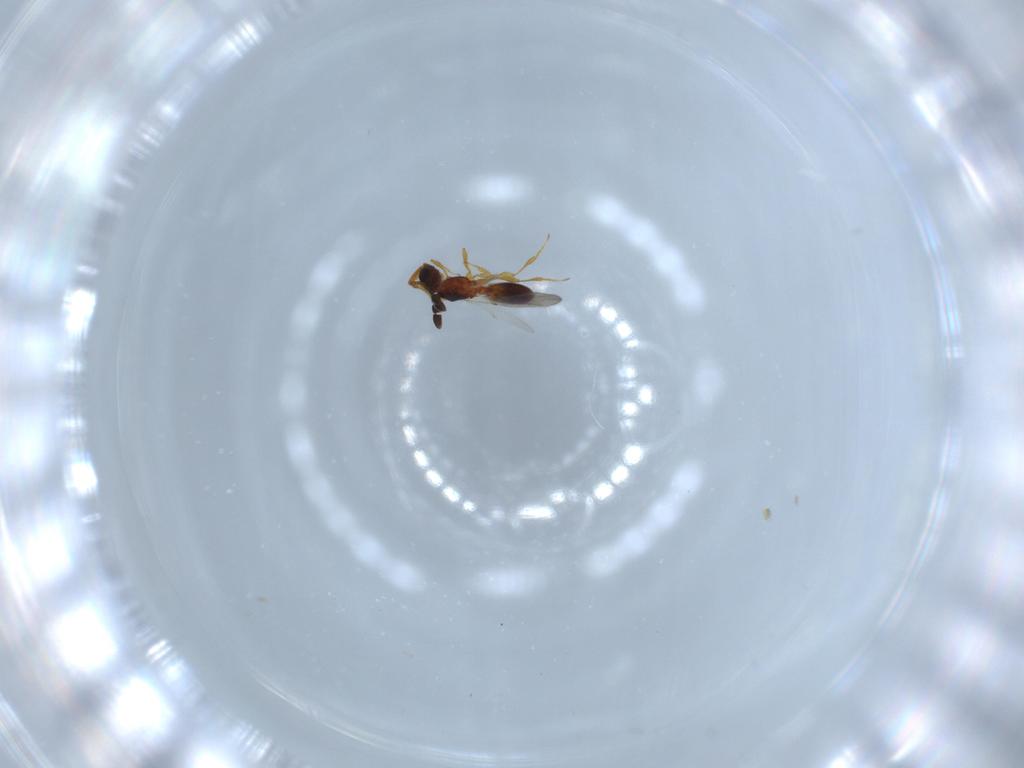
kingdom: Animalia
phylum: Arthropoda
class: Insecta
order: Hymenoptera
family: Diapriidae
